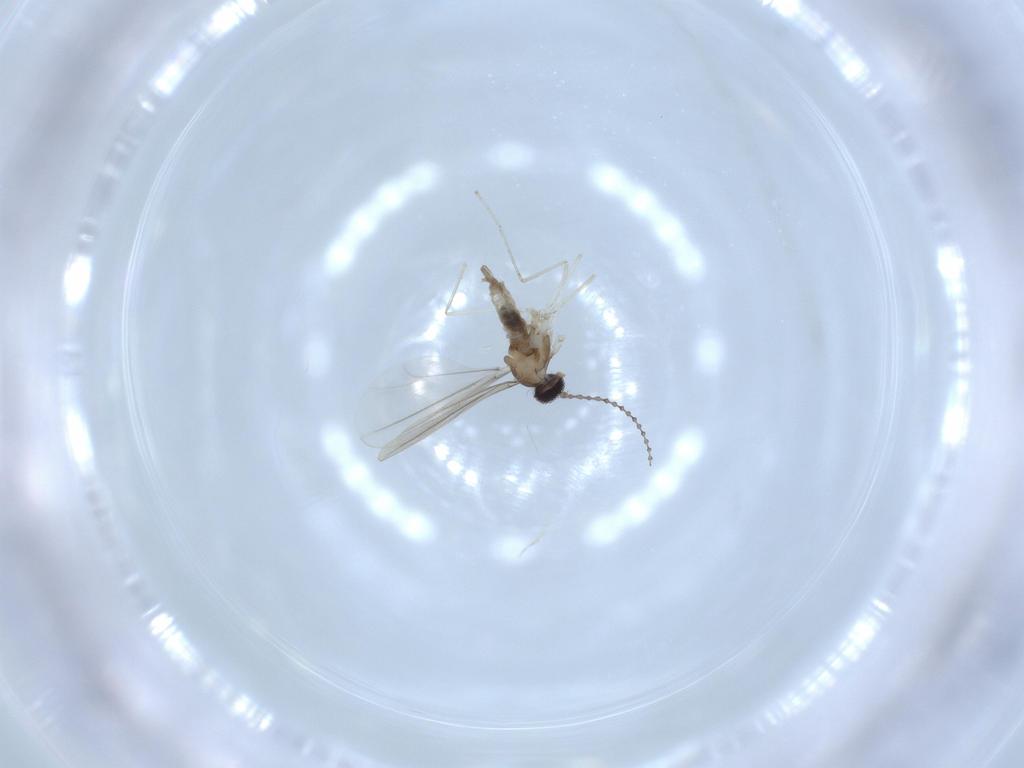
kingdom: Animalia
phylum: Arthropoda
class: Insecta
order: Diptera
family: Cecidomyiidae
